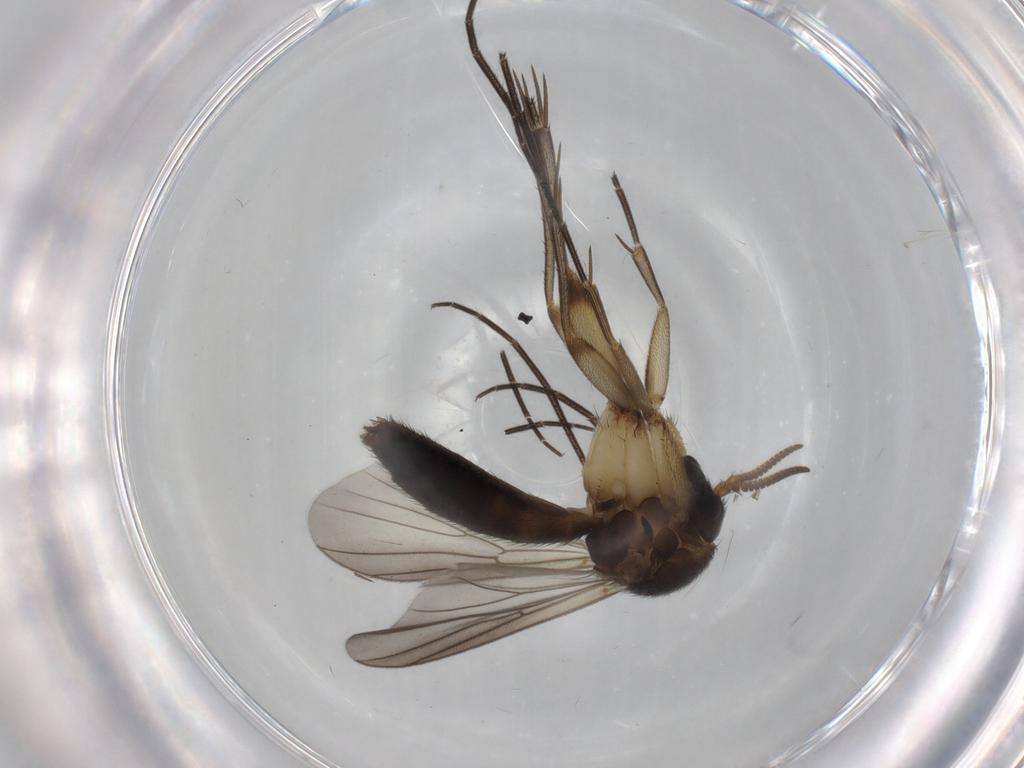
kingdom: Animalia
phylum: Arthropoda
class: Insecta
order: Diptera
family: Mycetophilidae
